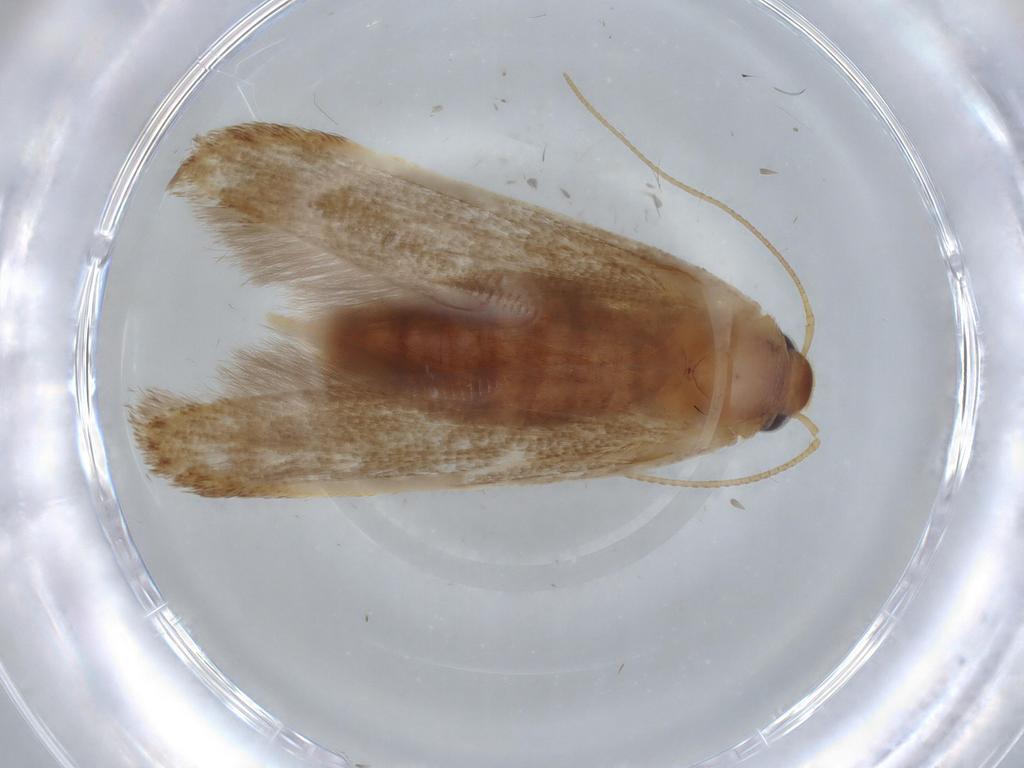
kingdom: Animalia
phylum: Arthropoda
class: Insecta
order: Lepidoptera
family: Blastobasidae
